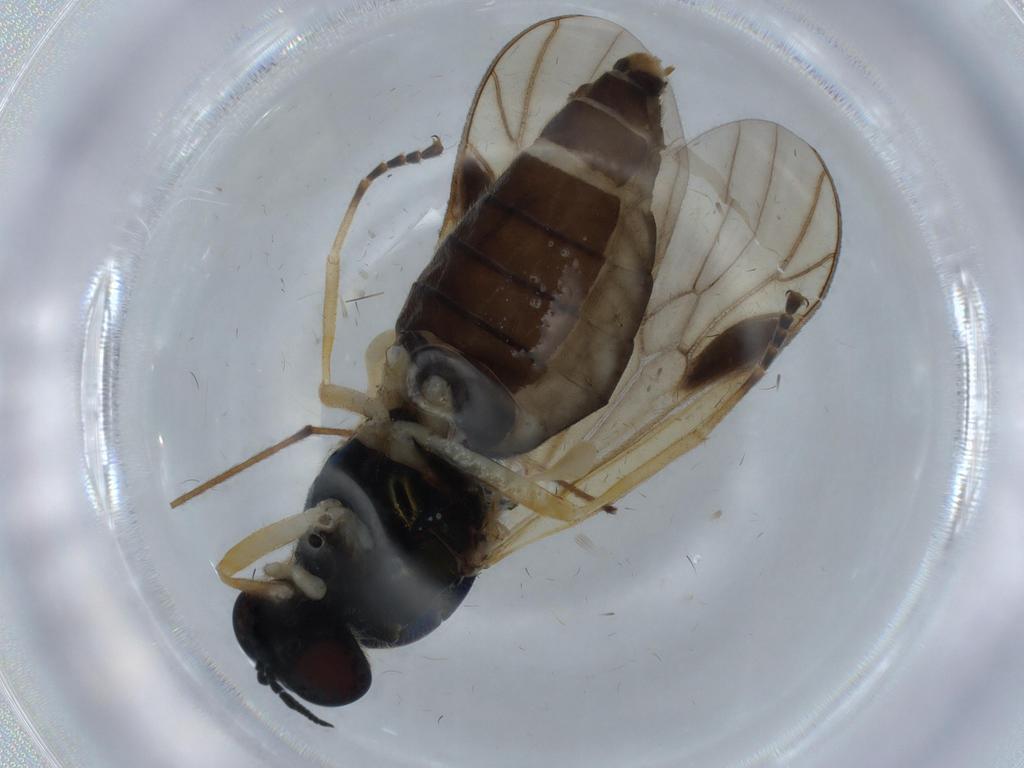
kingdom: Animalia
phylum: Arthropoda
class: Insecta
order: Diptera
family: Stratiomyidae
